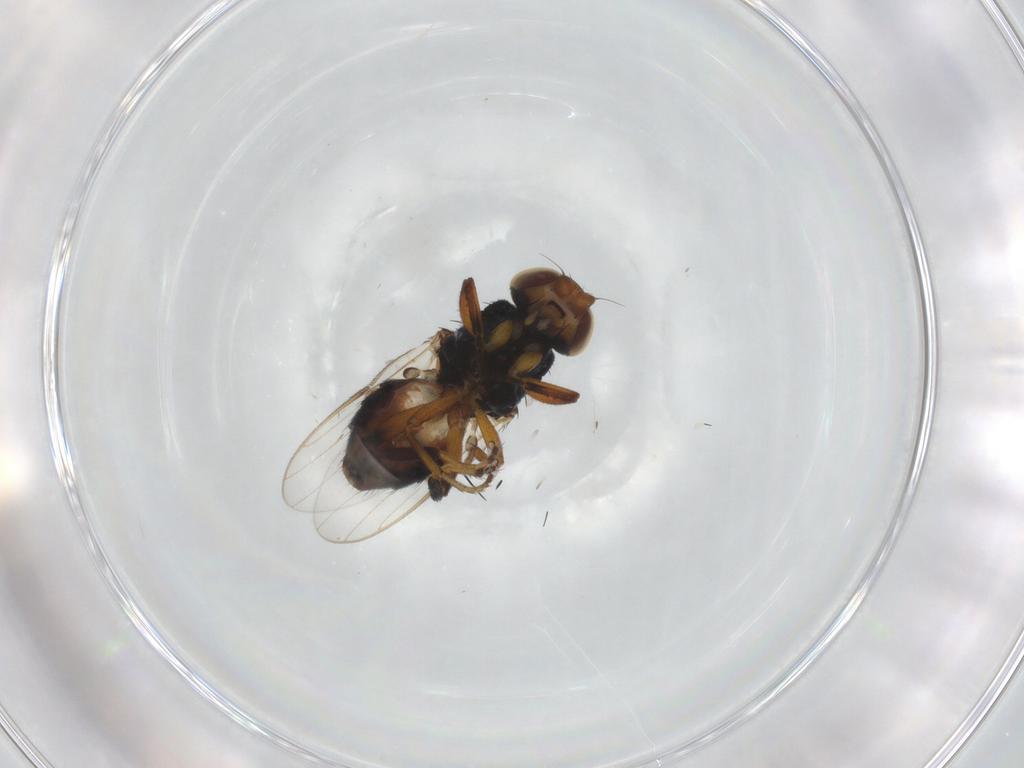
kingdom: Animalia
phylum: Arthropoda
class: Insecta
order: Diptera
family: Chloropidae
